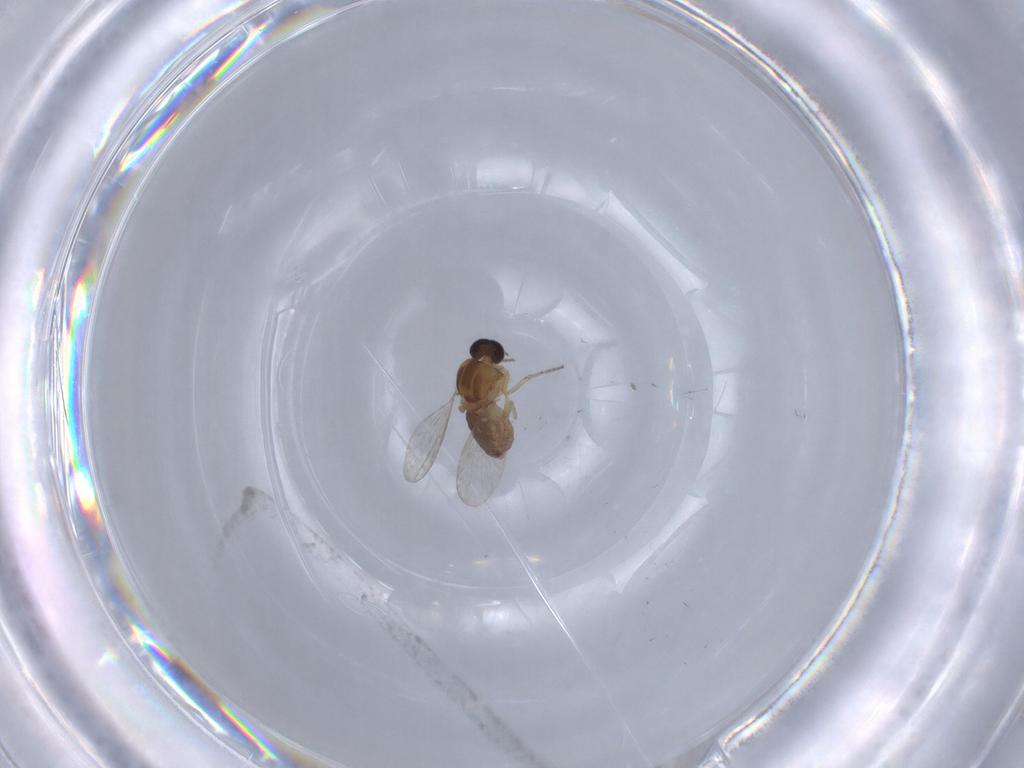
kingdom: Animalia
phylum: Arthropoda
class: Insecta
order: Diptera
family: Ceratopogonidae
